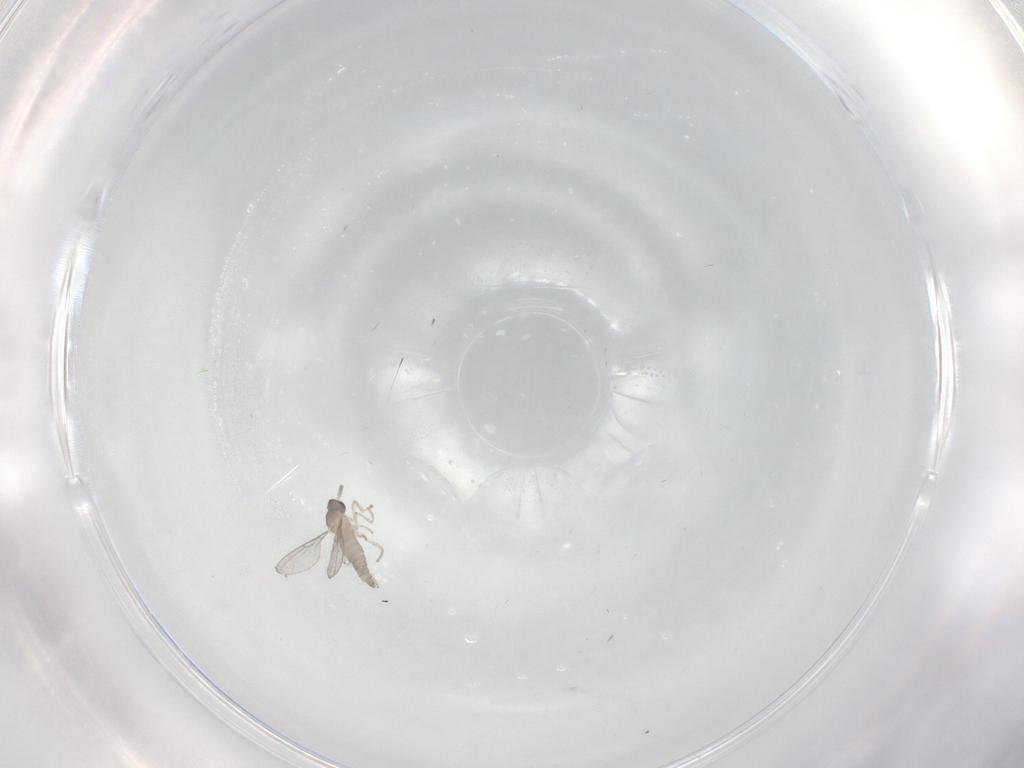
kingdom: Animalia
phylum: Arthropoda
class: Insecta
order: Diptera
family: Cecidomyiidae
